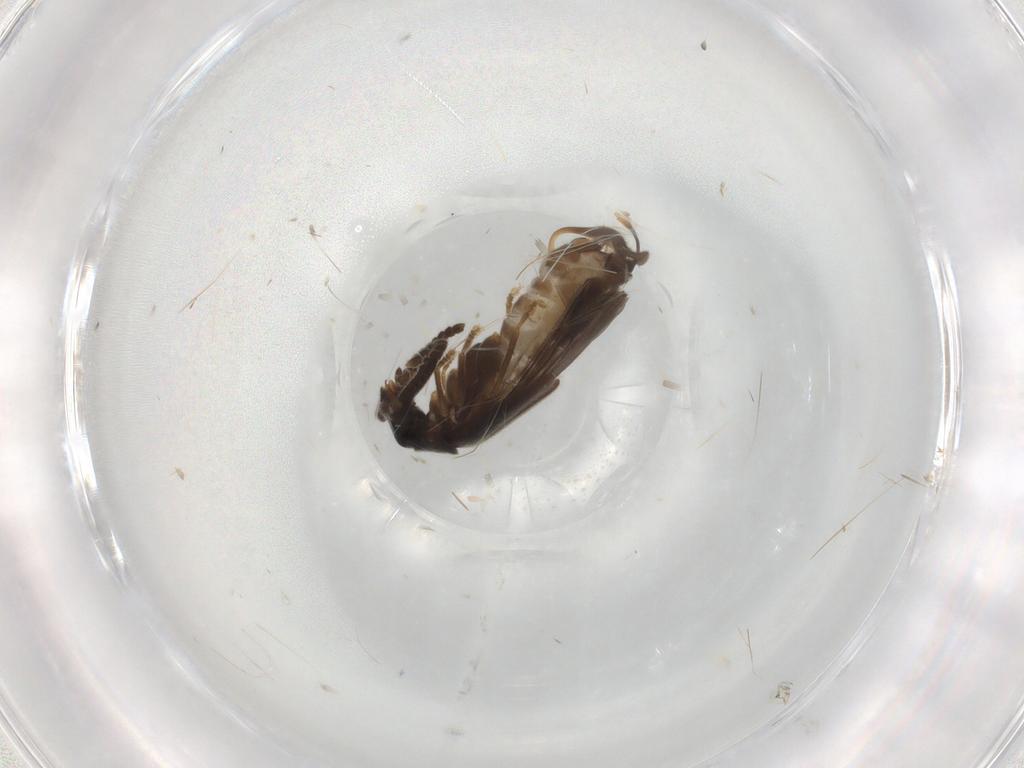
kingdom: Animalia
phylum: Arthropoda
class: Insecta
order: Coleoptera
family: Cantharidae
